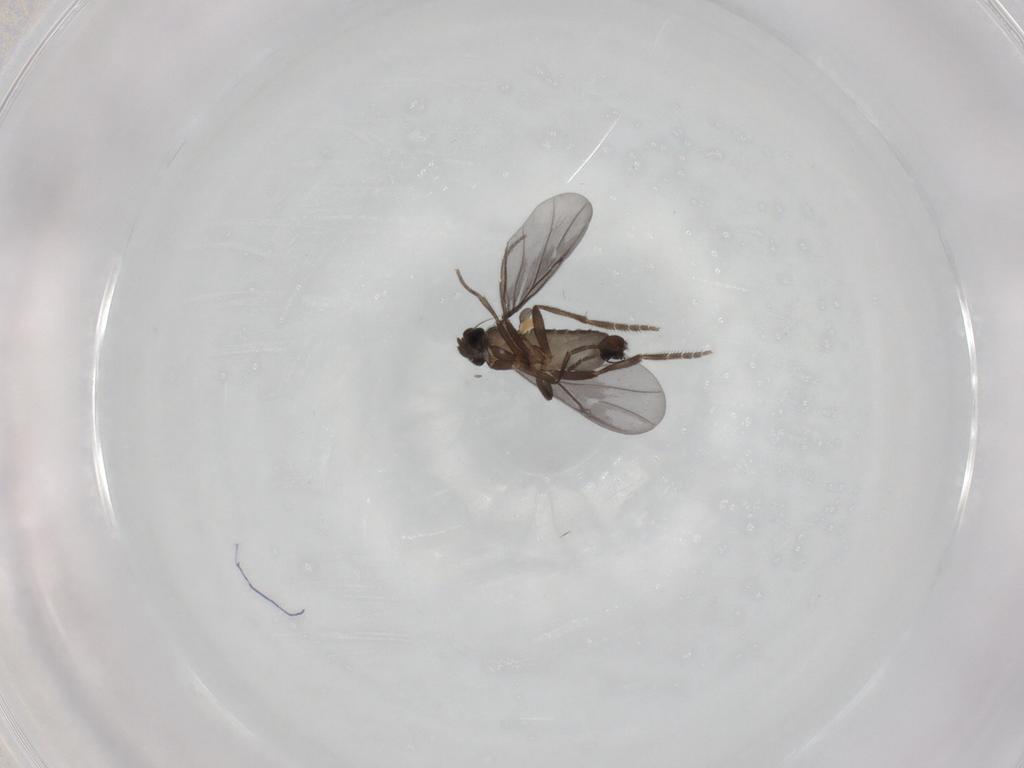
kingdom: Animalia
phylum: Arthropoda
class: Insecta
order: Diptera
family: Phoridae
